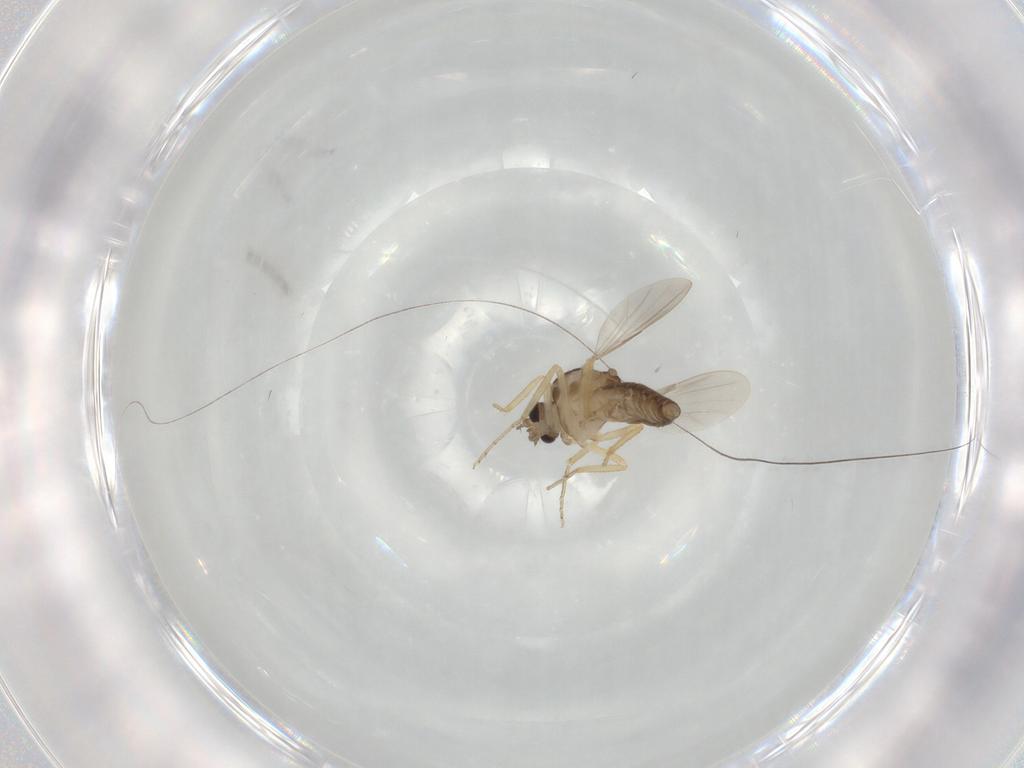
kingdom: Animalia
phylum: Arthropoda
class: Insecta
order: Diptera
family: Ceratopogonidae
